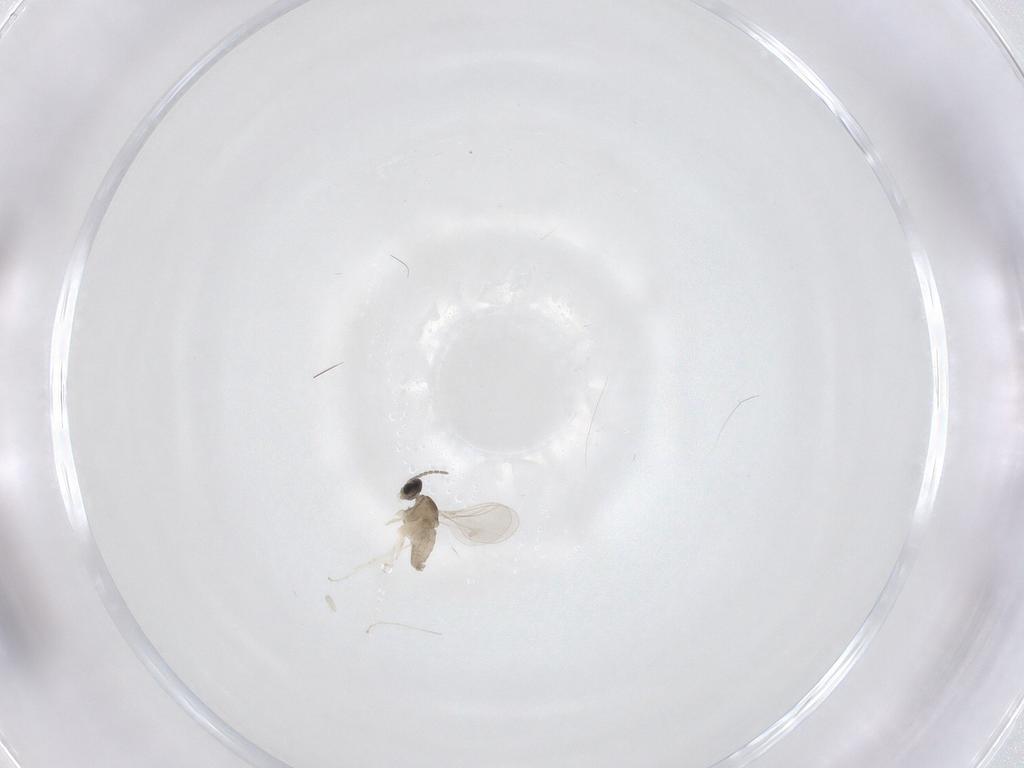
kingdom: Animalia
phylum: Arthropoda
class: Insecta
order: Diptera
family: Cecidomyiidae
